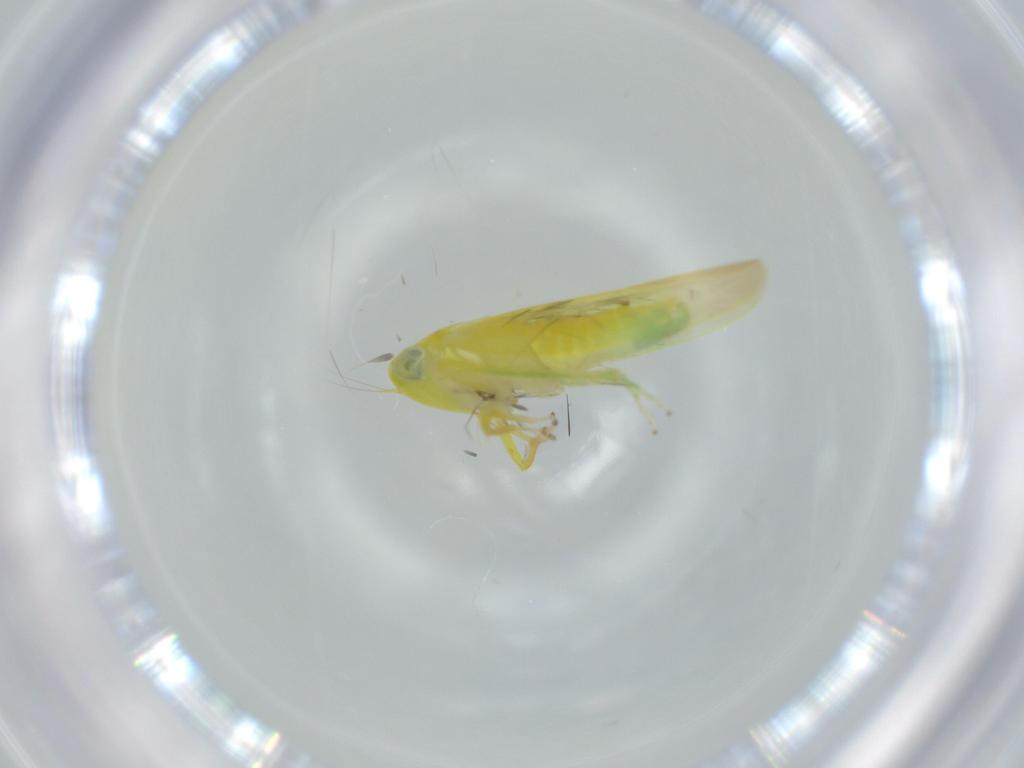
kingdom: Animalia
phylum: Arthropoda
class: Insecta
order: Hemiptera
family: Cicadellidae
